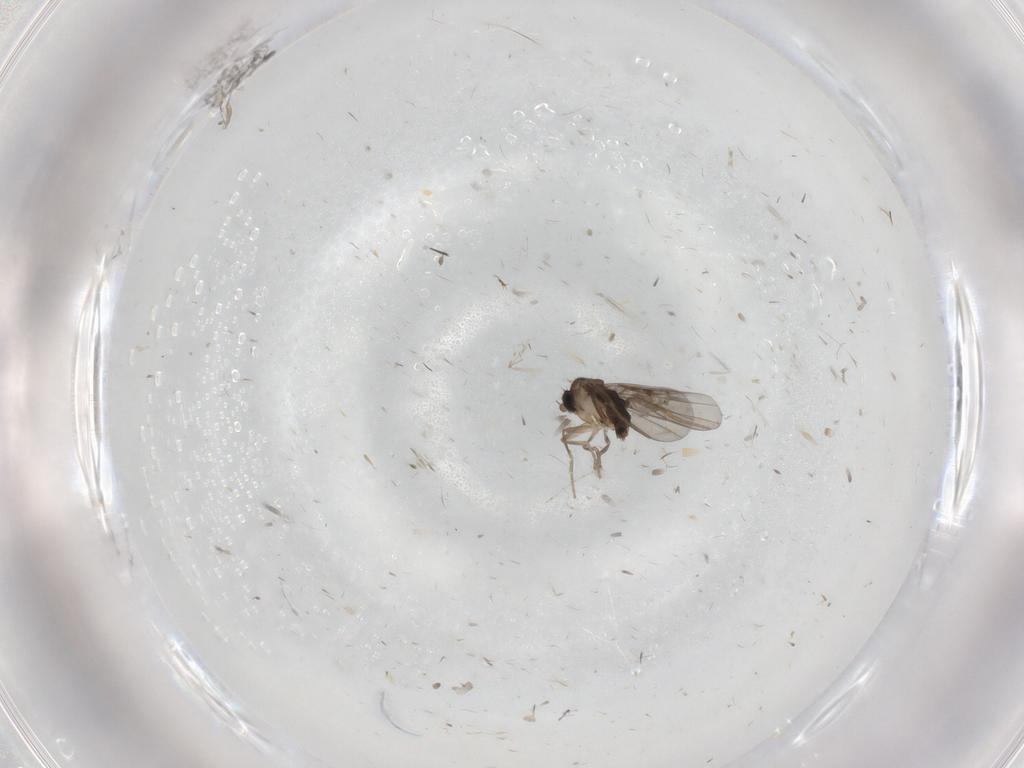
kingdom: Animalia
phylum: Arthropoda
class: Insecta
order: Diptera
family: Phoridae
